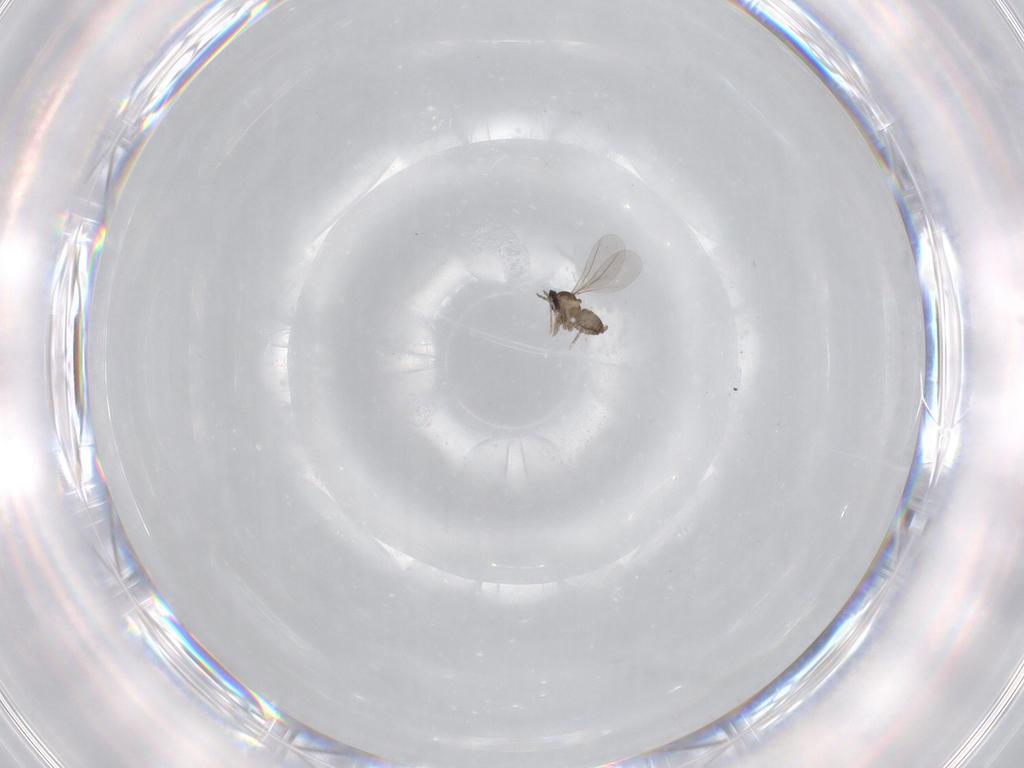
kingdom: Animalia
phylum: Arthropoda
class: Insecta
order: Diptera
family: Cecidomyiidae
